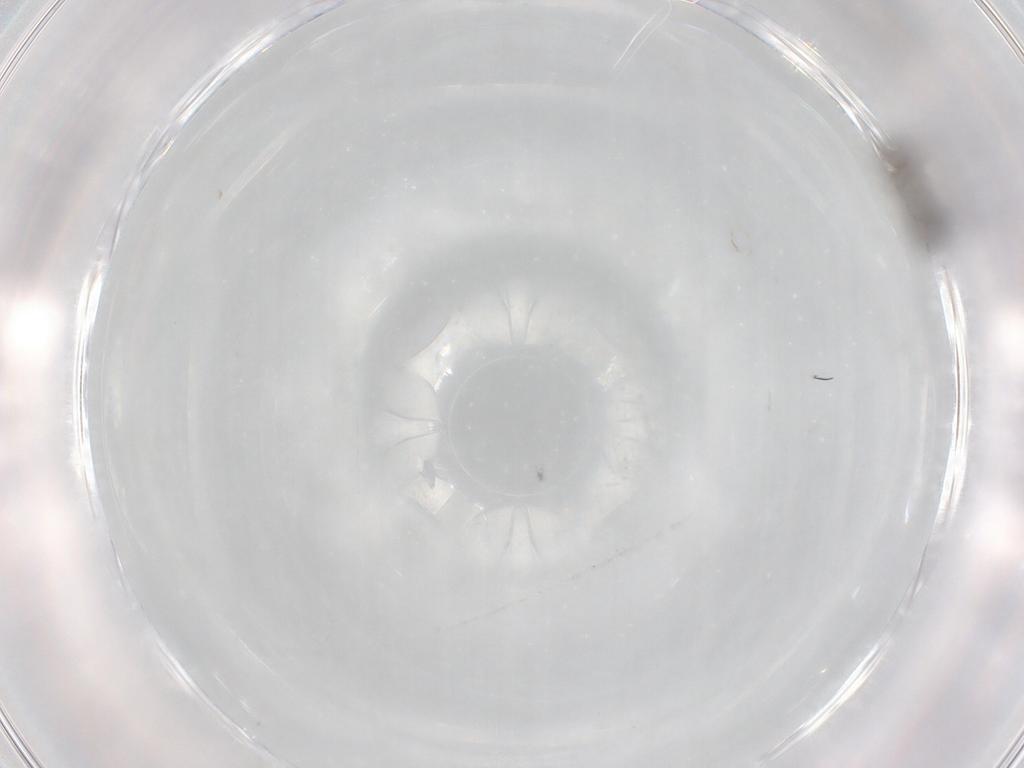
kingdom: Animalia
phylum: Arthropoda
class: Insecta
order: Diptera
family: Sciaridae
